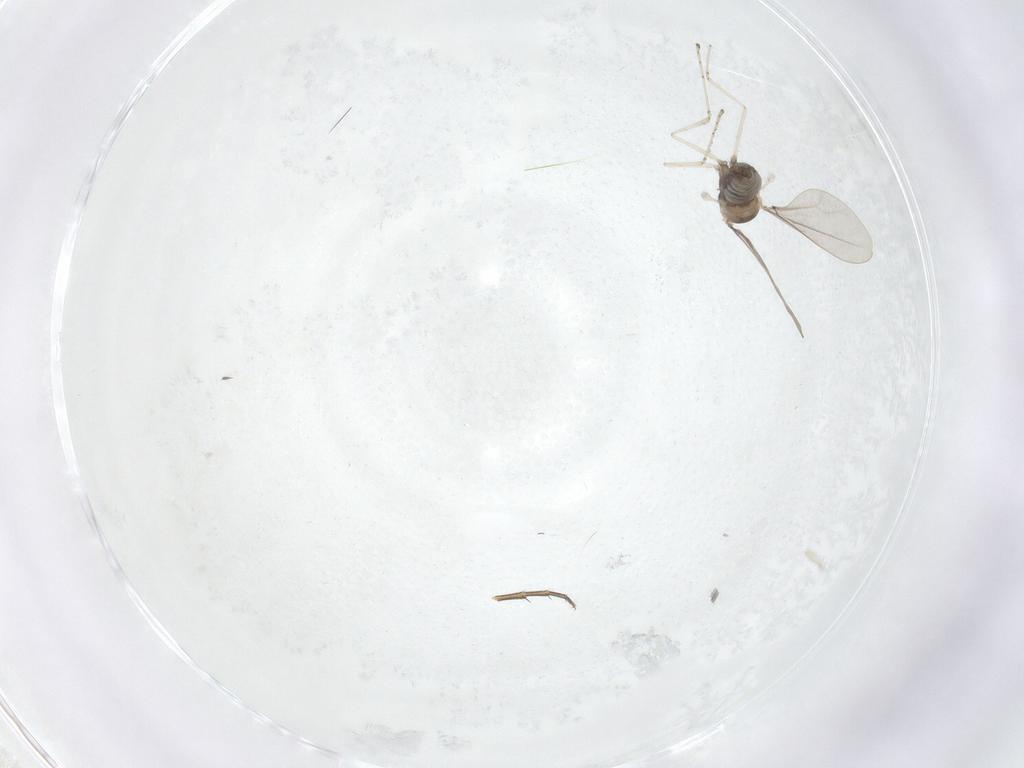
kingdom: Animalia
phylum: Arthropoda
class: Insecta
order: Diptera
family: Cecidomyiidae
